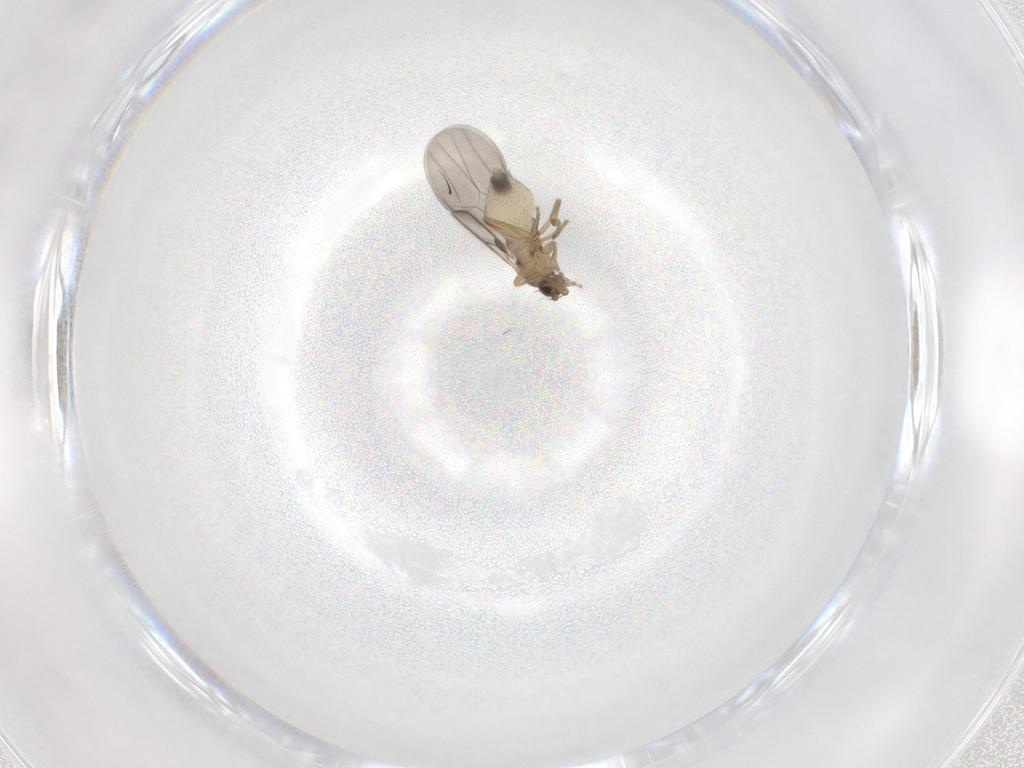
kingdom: Animalia
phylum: Arthropoda
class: Insecta
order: Diptera
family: Phoridae
